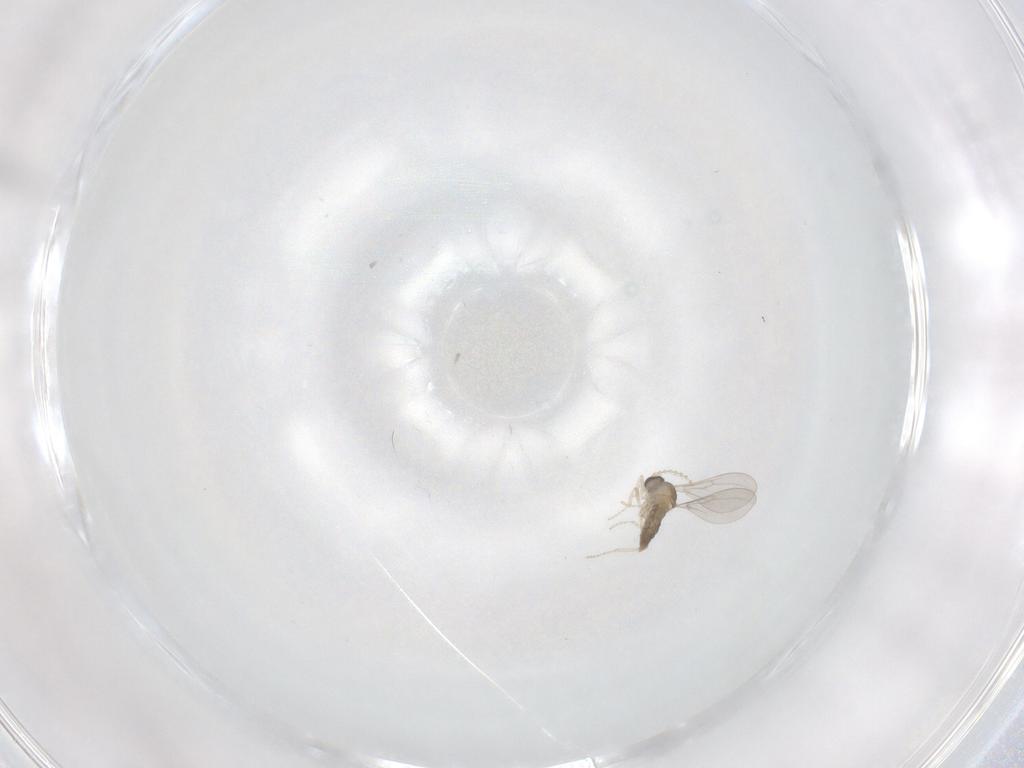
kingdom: Animalia
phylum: Arthropoda
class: Insecta
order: Diptera
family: Cecidomyiidae
